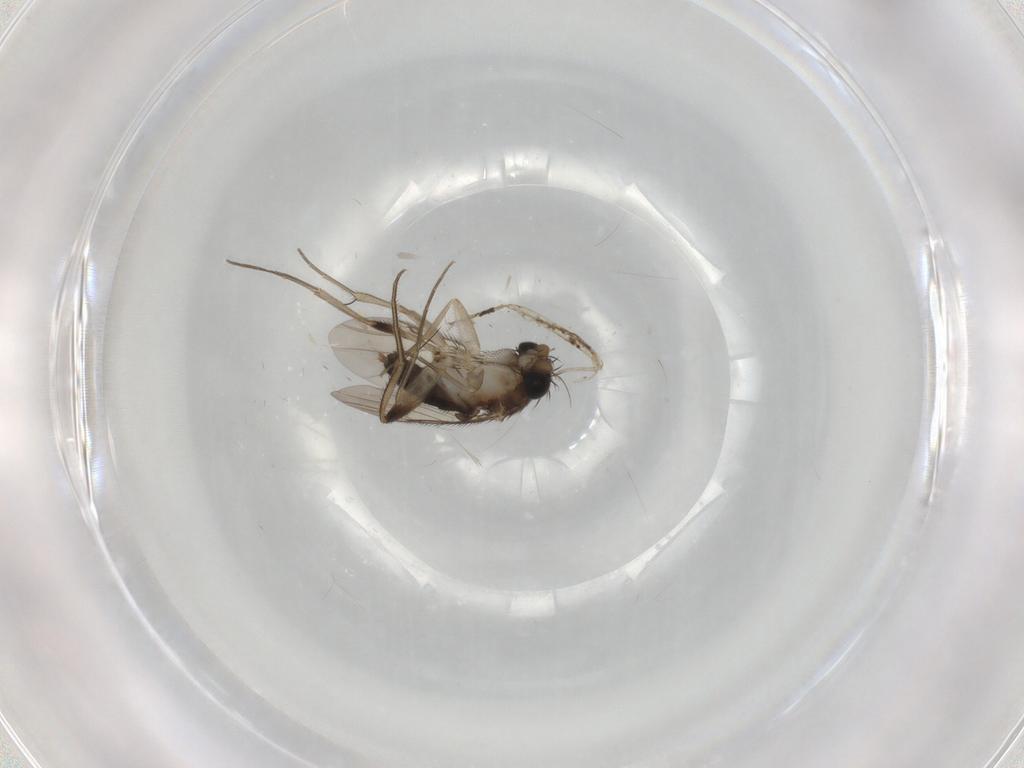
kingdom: Animalia
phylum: Arthropoda
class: Insecta
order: Diptera
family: Phoridae
